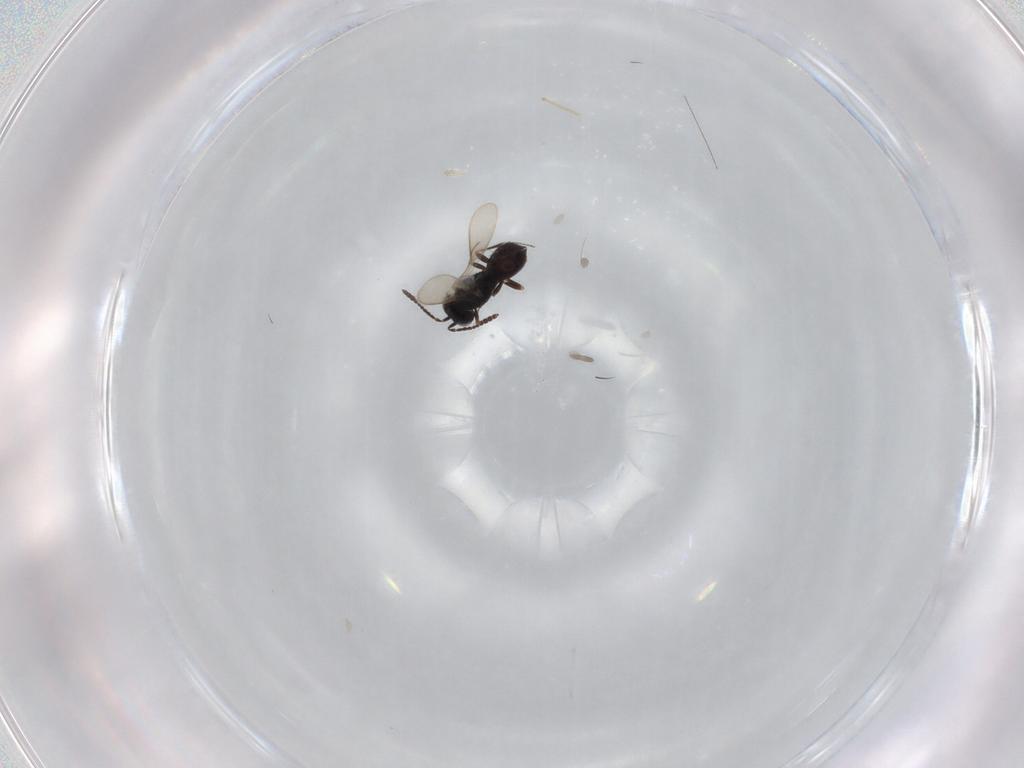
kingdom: Animalia
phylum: Arthropoda
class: Insecta
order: Hymenoptera
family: Scelionidae
